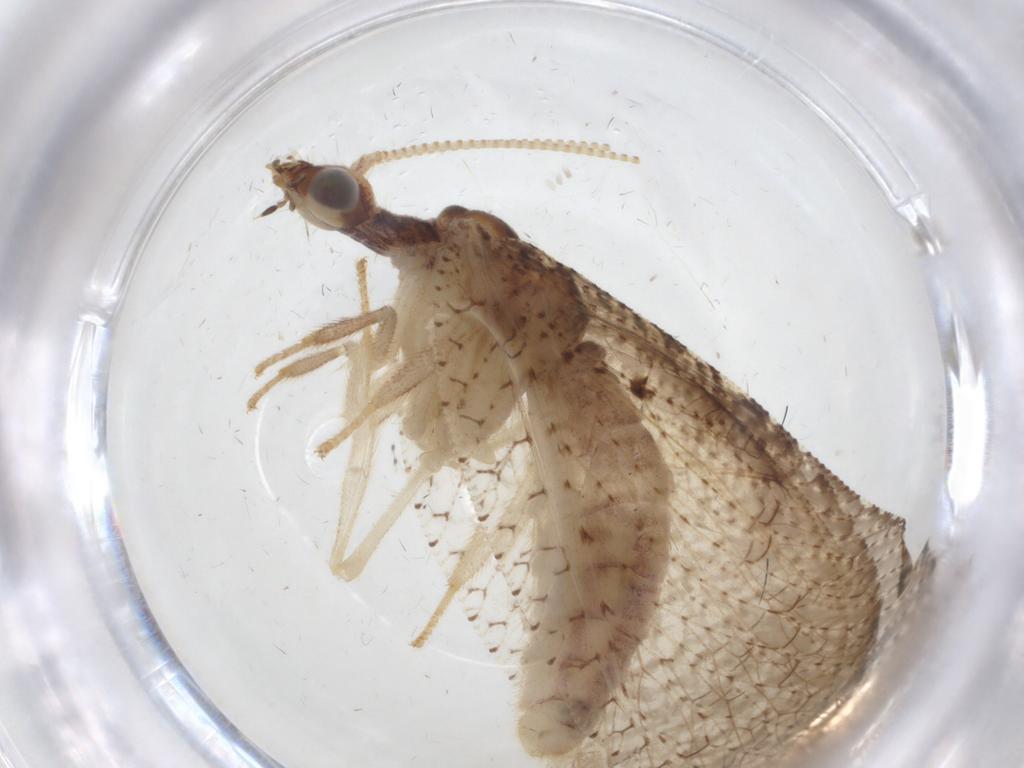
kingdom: Animalia
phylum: Arthropoda
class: Insecta
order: Neuroptera
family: Hemerobiidae
